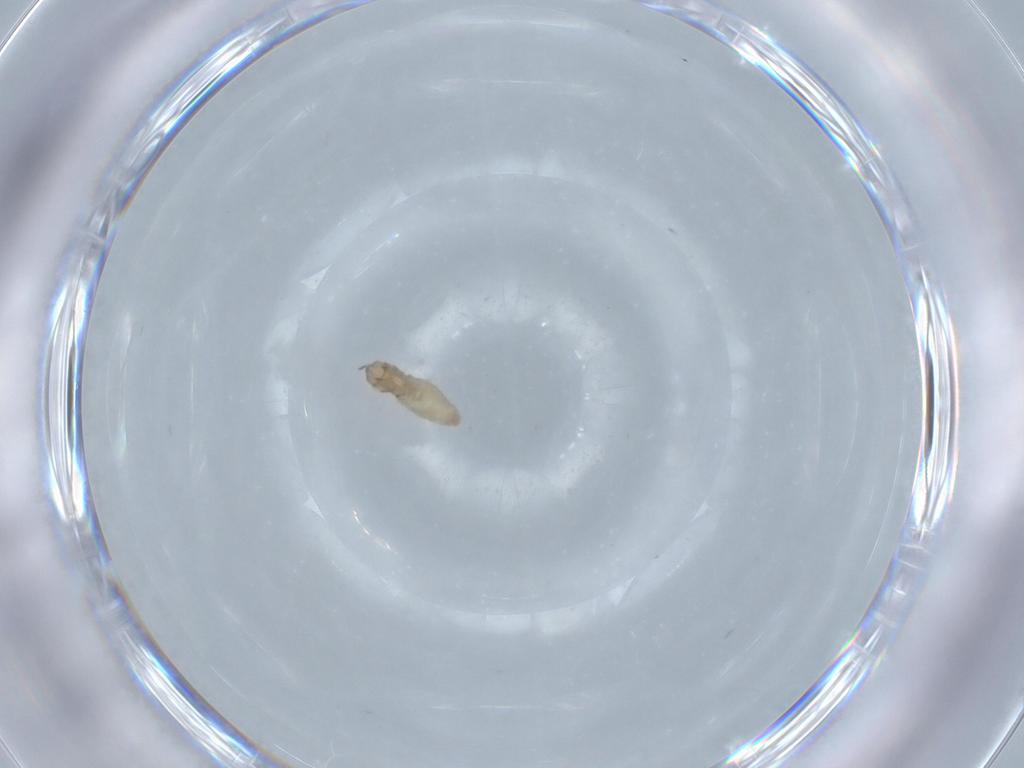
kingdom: Animalia
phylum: Arthropoda
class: Insecta
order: Diptera
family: Cecidomyiidae
